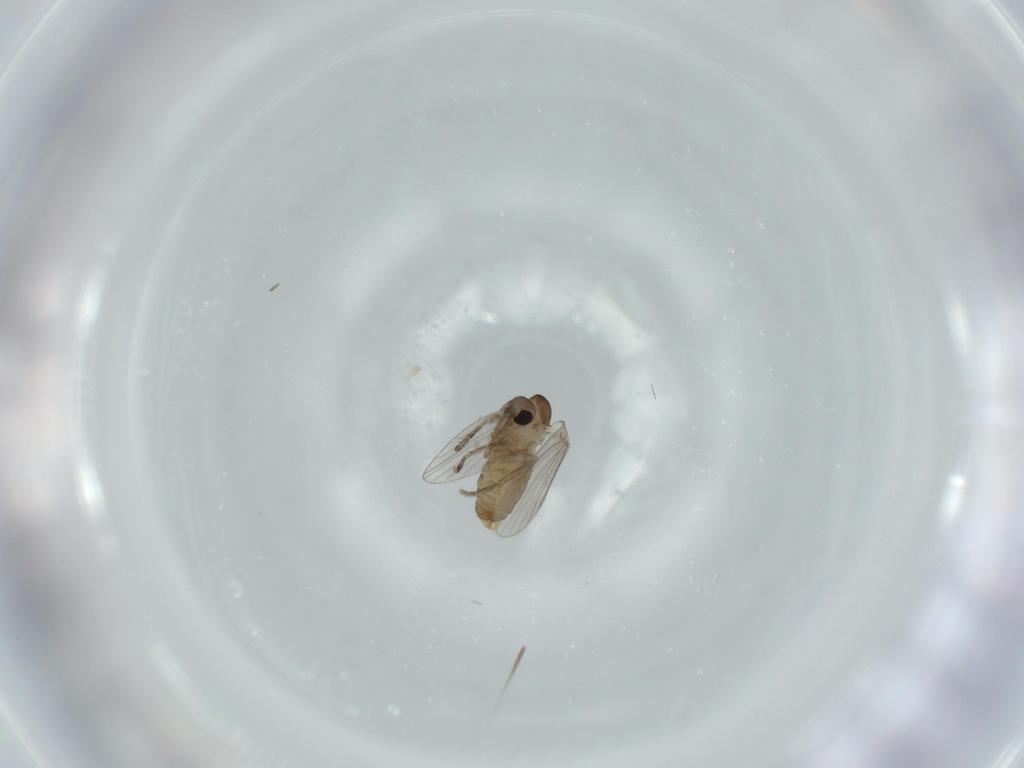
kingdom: Animalia
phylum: Arthropoda
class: Insecta
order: Diptera
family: Psychodidae
